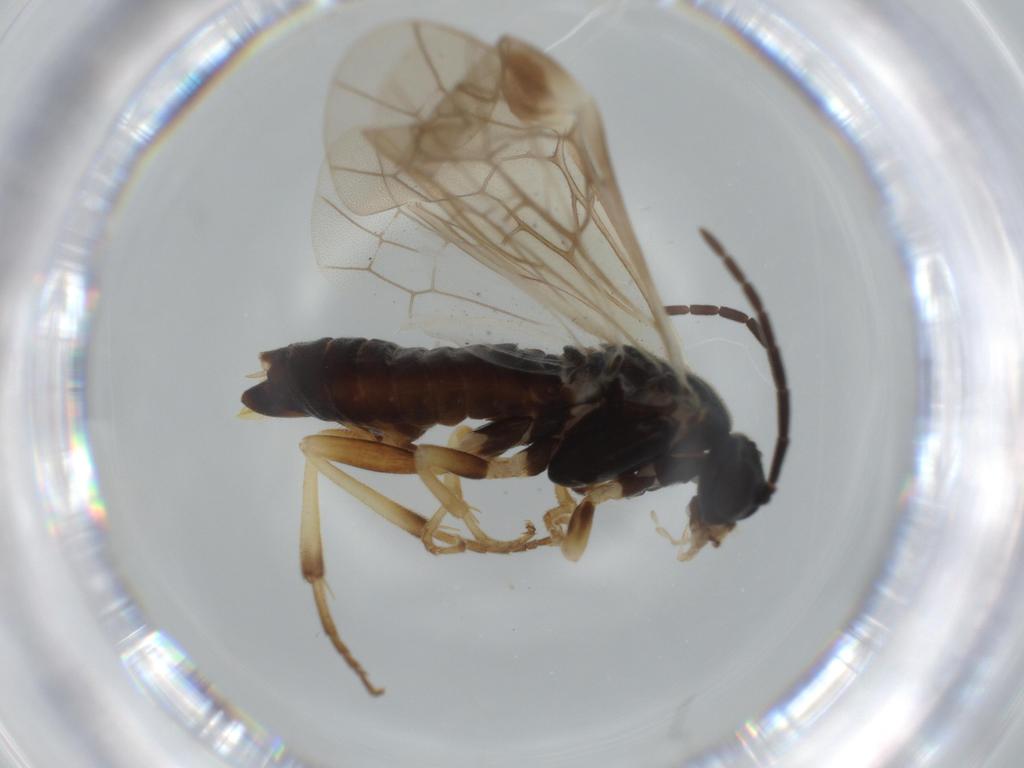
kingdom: Animalia
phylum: Arthropoda
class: Insecta
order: Hymenoptera
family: Tenthredinidae
